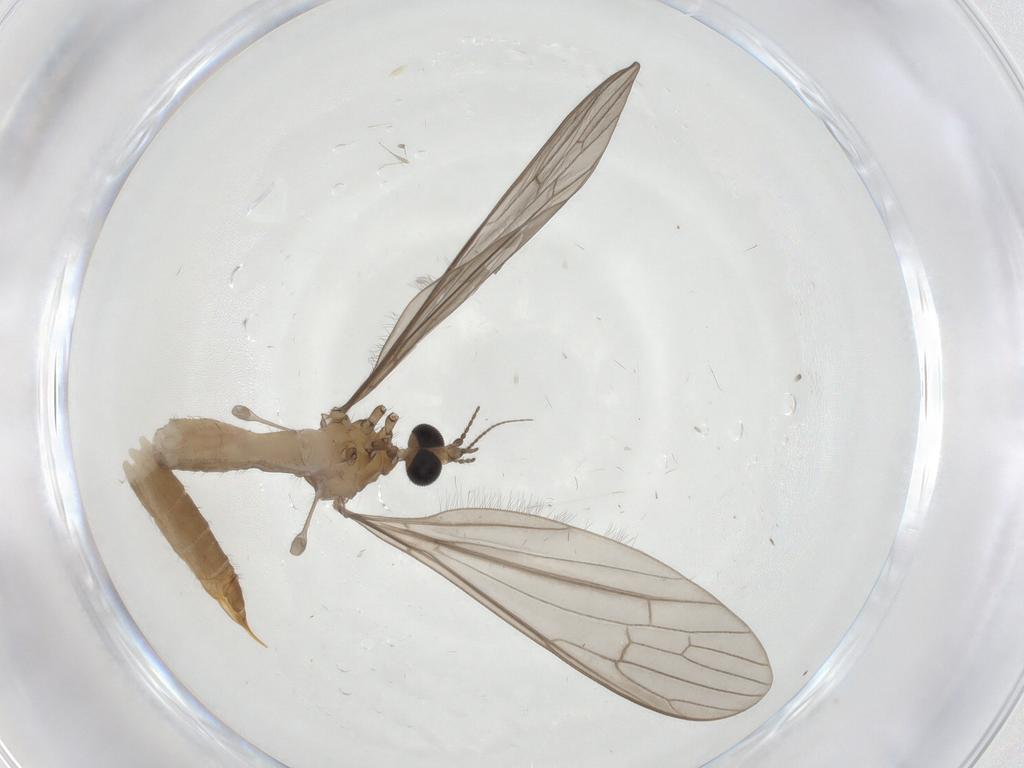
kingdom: Animalia
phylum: Arthropoda
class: Insecta
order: Diptera
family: Limoniidae
